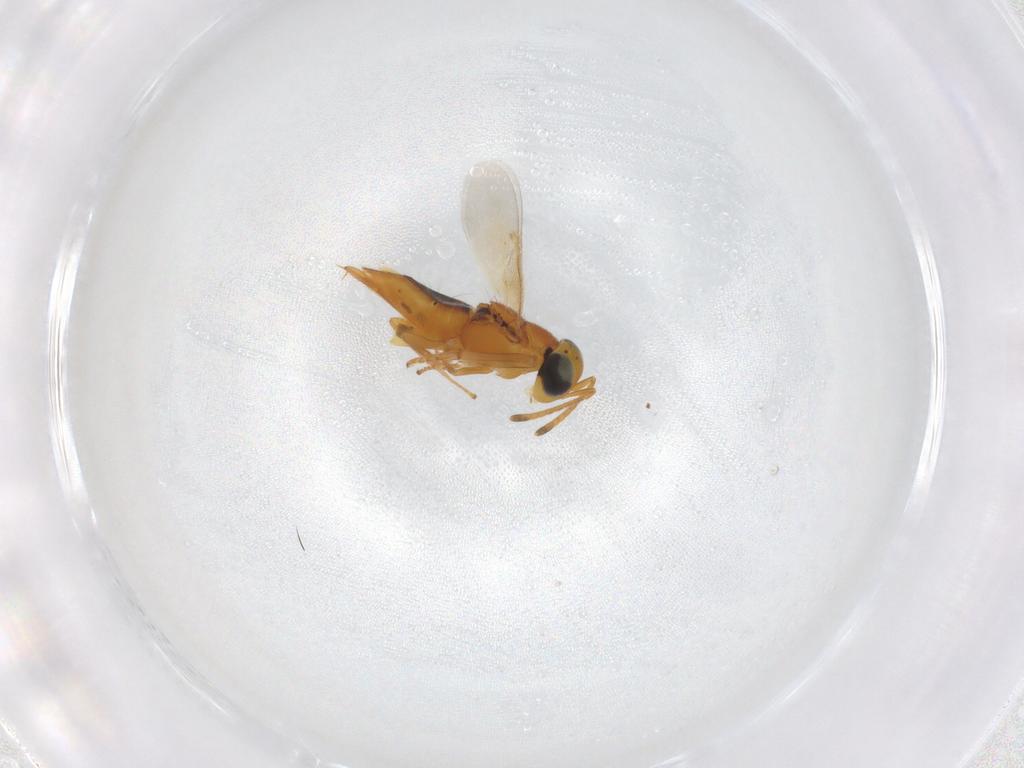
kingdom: Animalia
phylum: Arthropoda
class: Insecta
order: Hymenoptera
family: Encyrtidae
